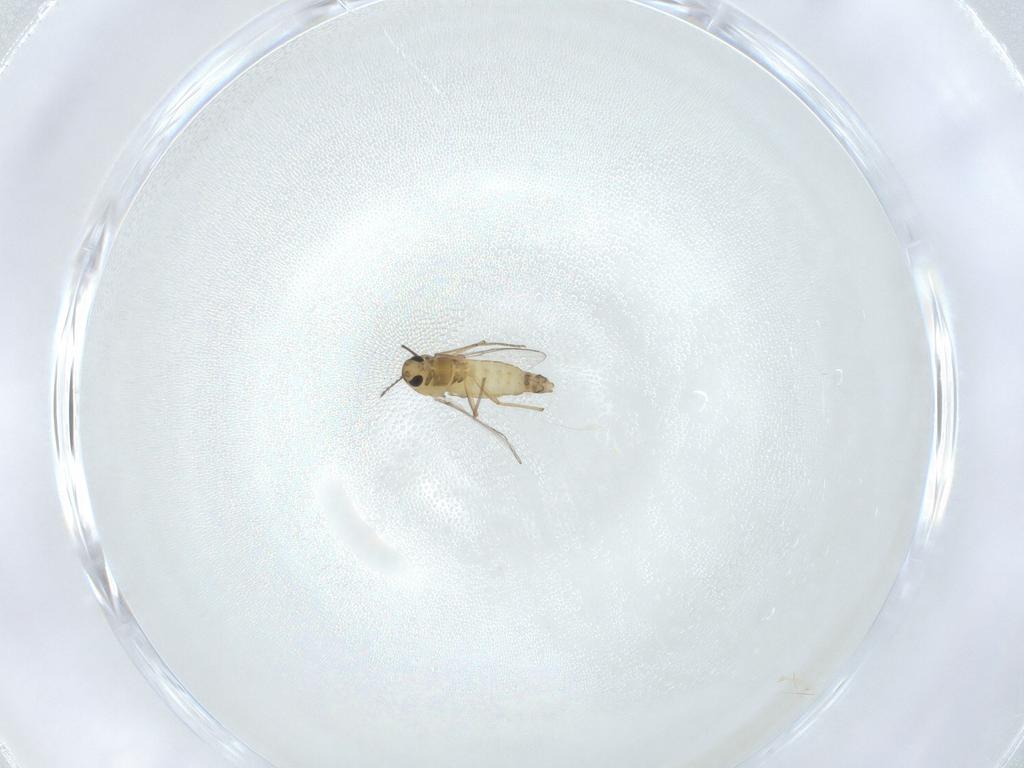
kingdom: Animalia
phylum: Arthropoda
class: Insecta
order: Diptera
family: Chironomidae
